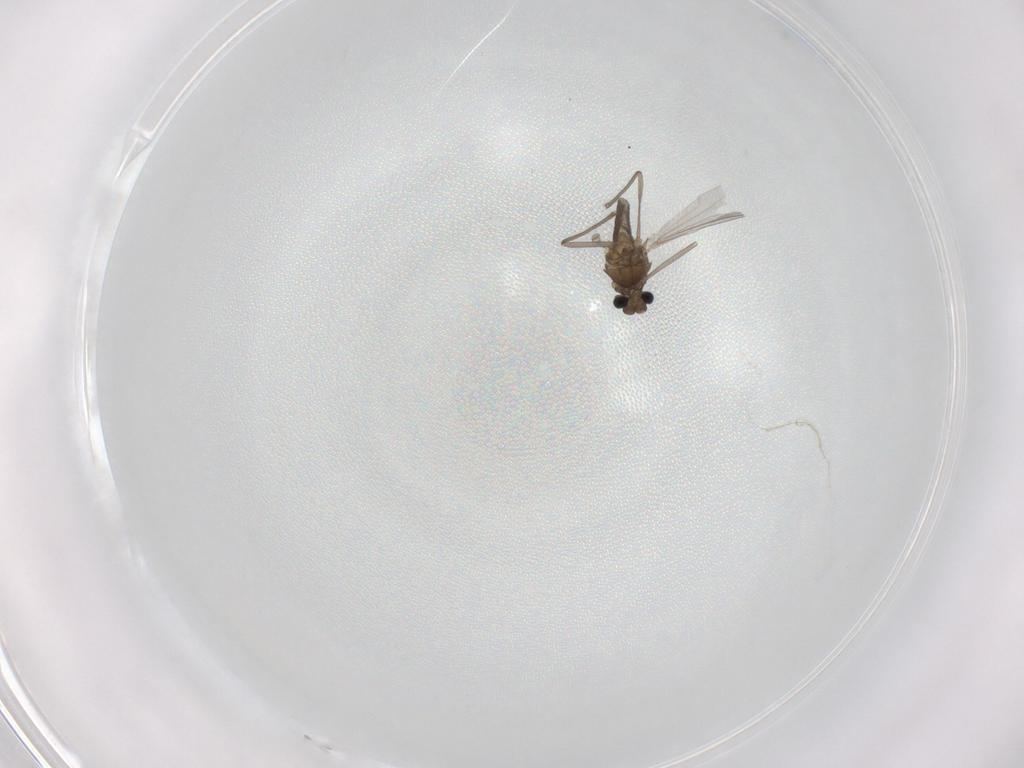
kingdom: Animalia
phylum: Arthropoda
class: Insecta
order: Diptera
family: Chironomidae
